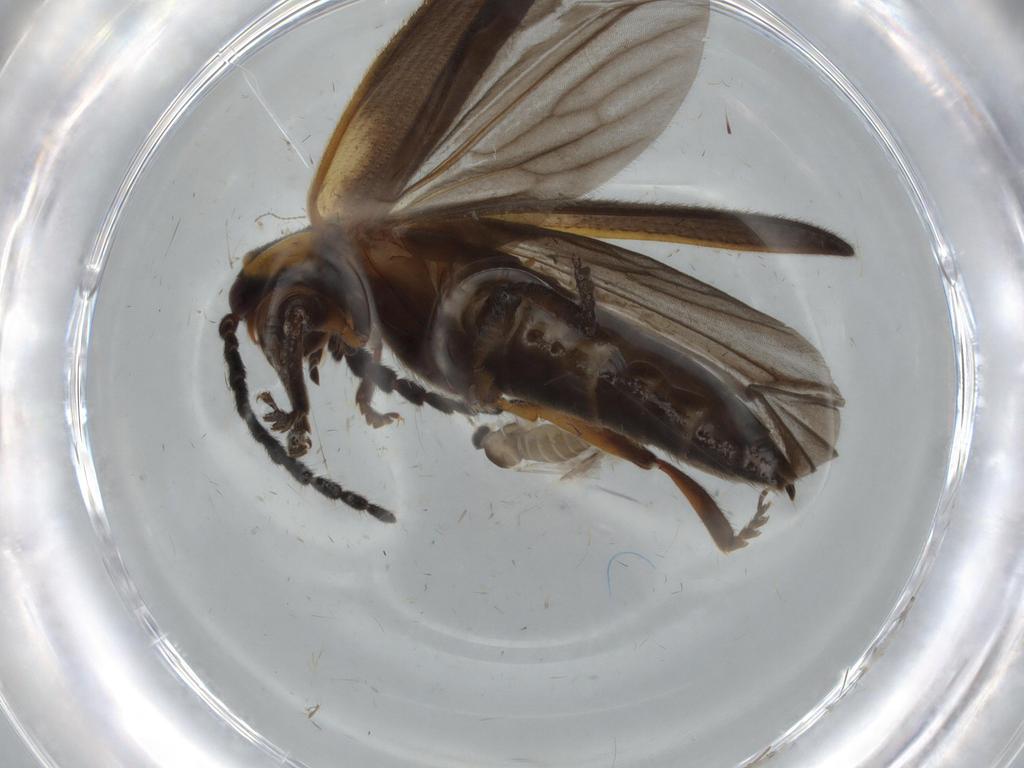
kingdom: Animalia
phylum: Arthropoda
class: Insecta
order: Coleoptera
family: Lycidae
